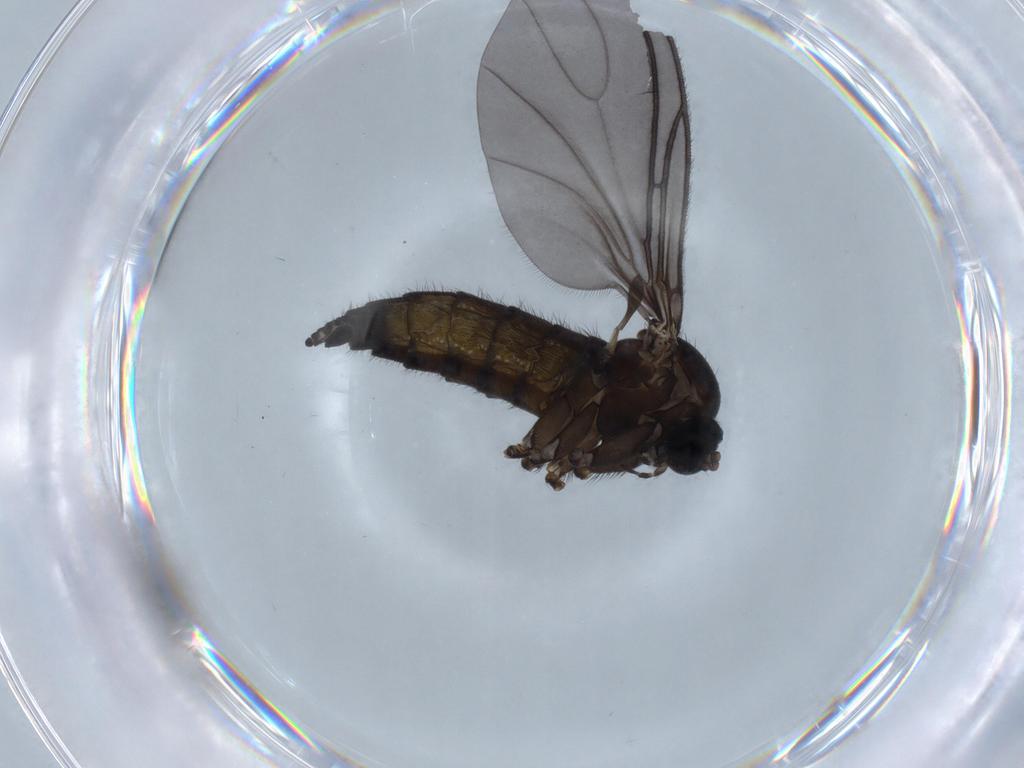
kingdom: Animalia
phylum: Arthropoda
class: Insecta
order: Diptera
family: Sciaridae
